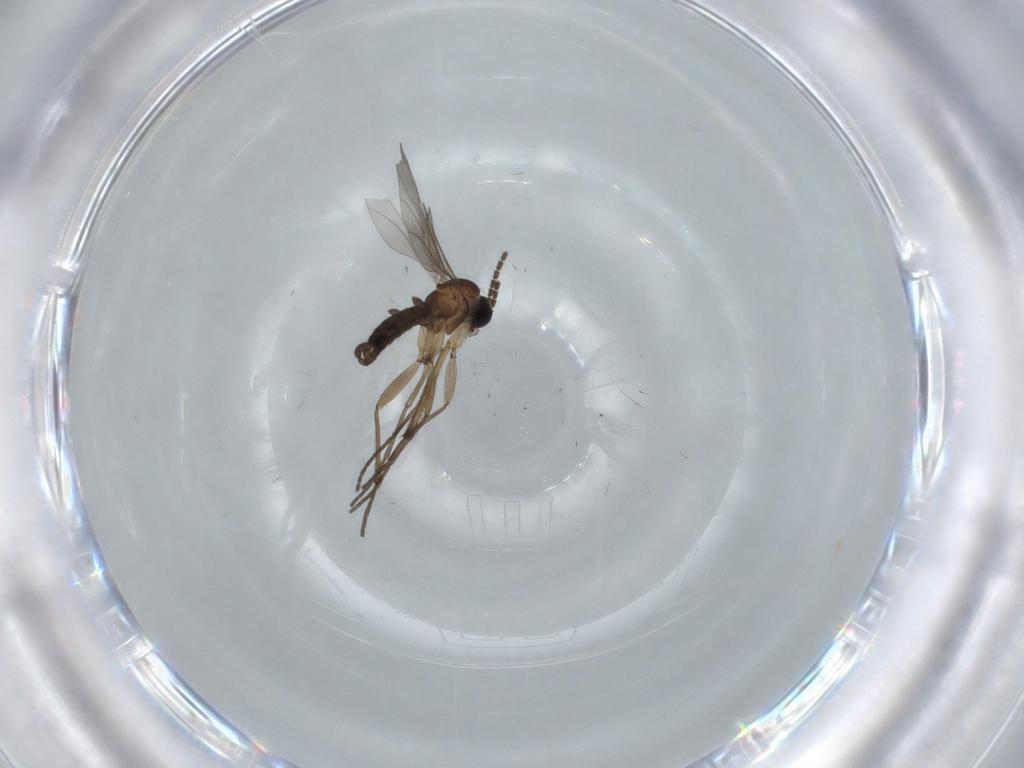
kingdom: Animalia
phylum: Arthropoda
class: Insecta
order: Diptera
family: Sciaridae
